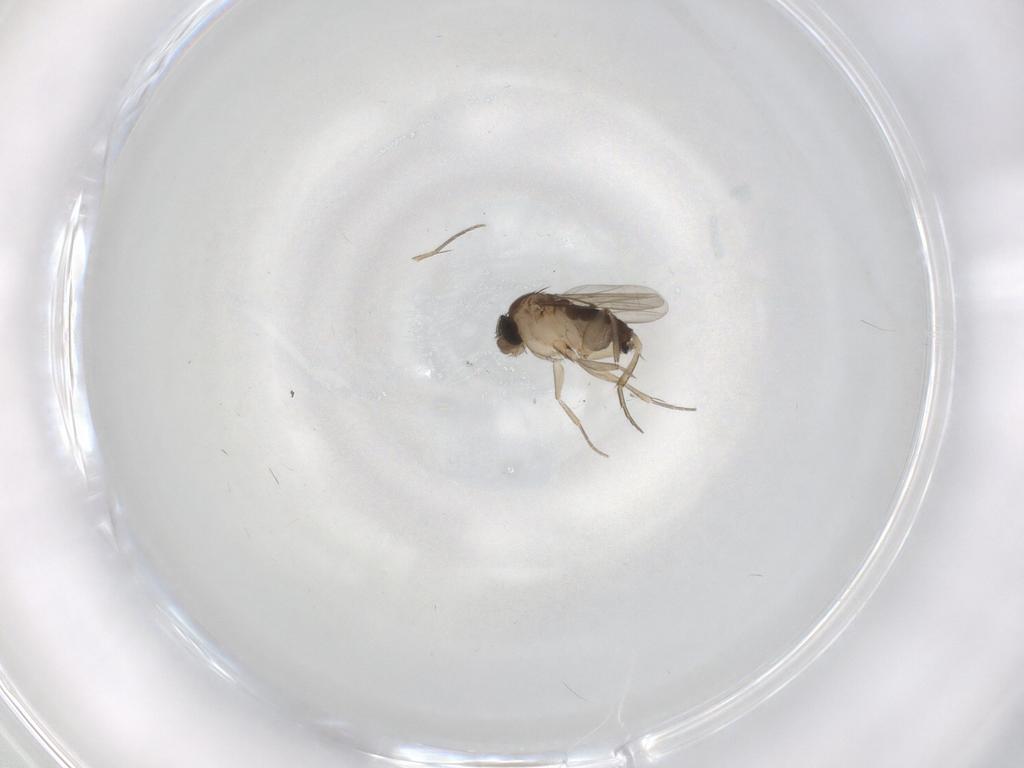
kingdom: Animalia
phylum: Arthropoda
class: Insecta
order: Diptera
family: Phoridae
